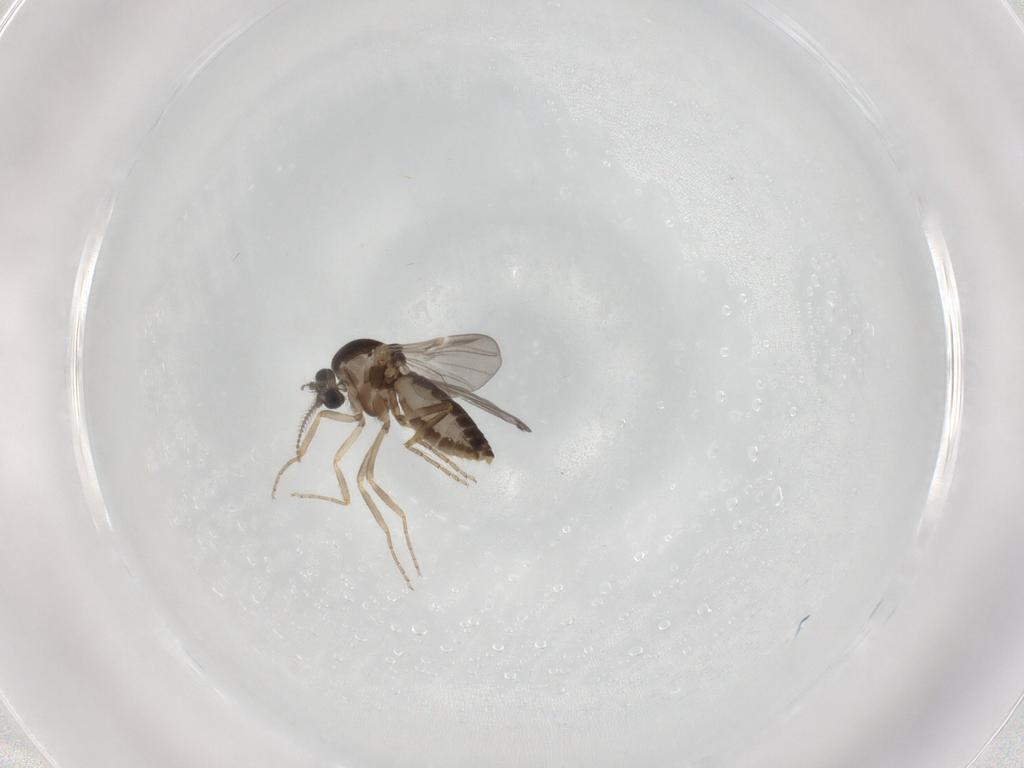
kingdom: Animalia
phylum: Arthropoda
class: Insecta
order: Diptera
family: Ceratopogonidae
